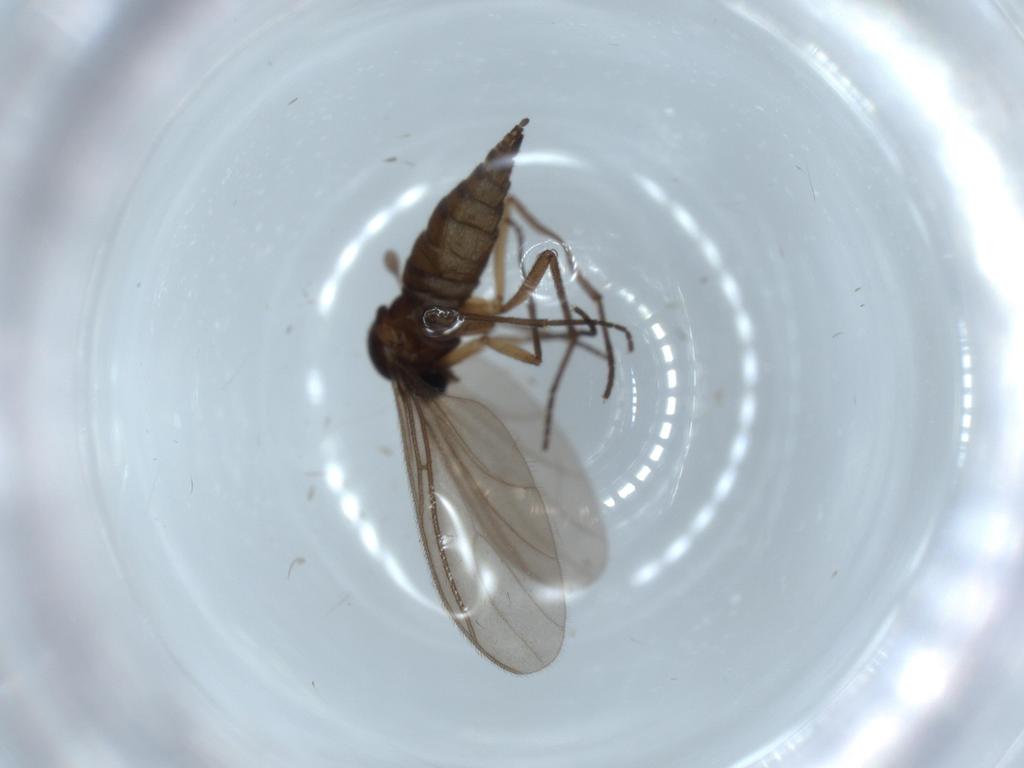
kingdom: Animalia
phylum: Arthropoda
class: Insecta
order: Diptera
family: Sciaridae
